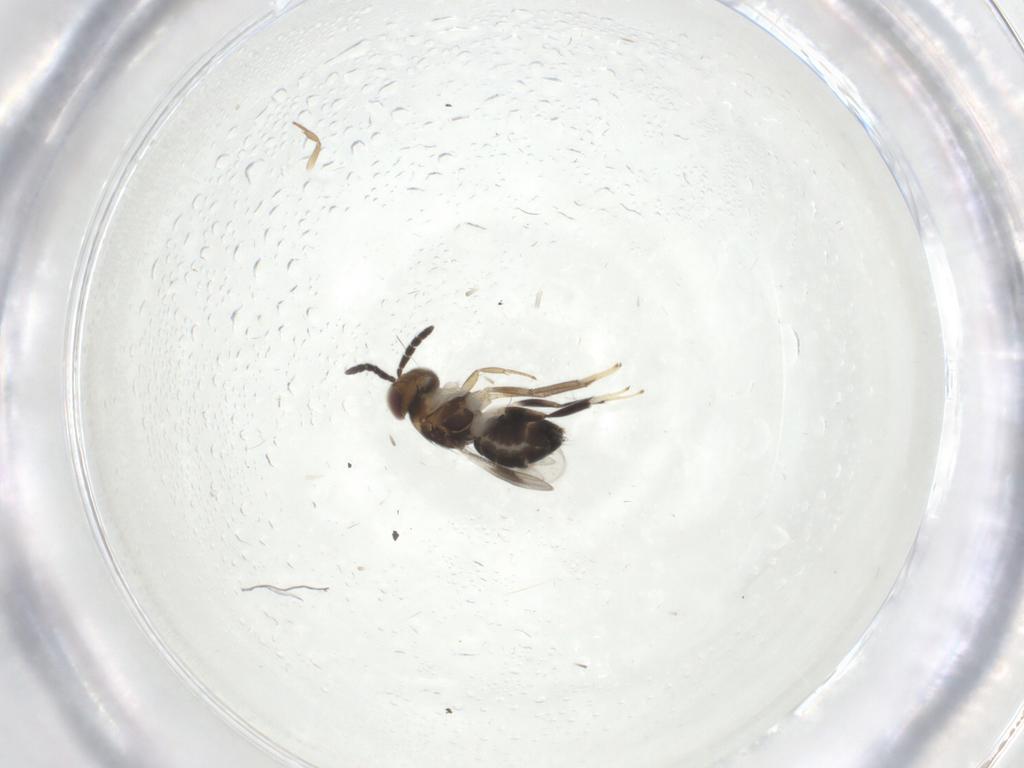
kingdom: Animalia
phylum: Arthropoda
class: Insecta
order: Hymenoptera
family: Aphelinidae
